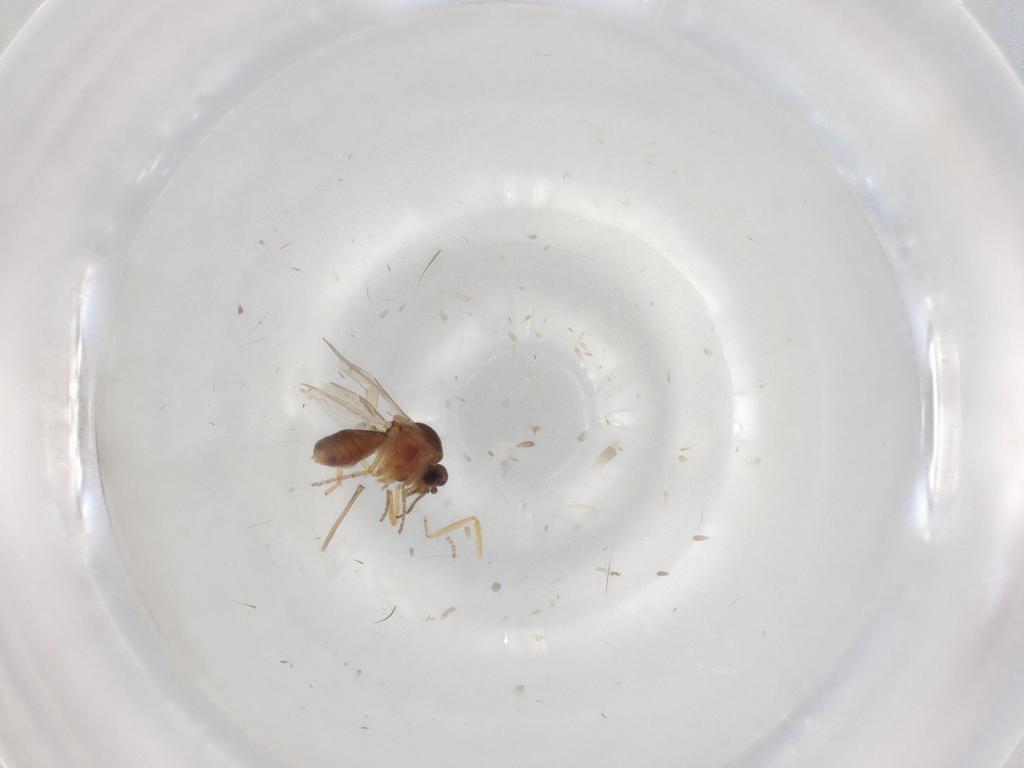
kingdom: Animalia
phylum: Arthropoda
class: Insecta
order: Diptera
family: Ceratopogonidae
